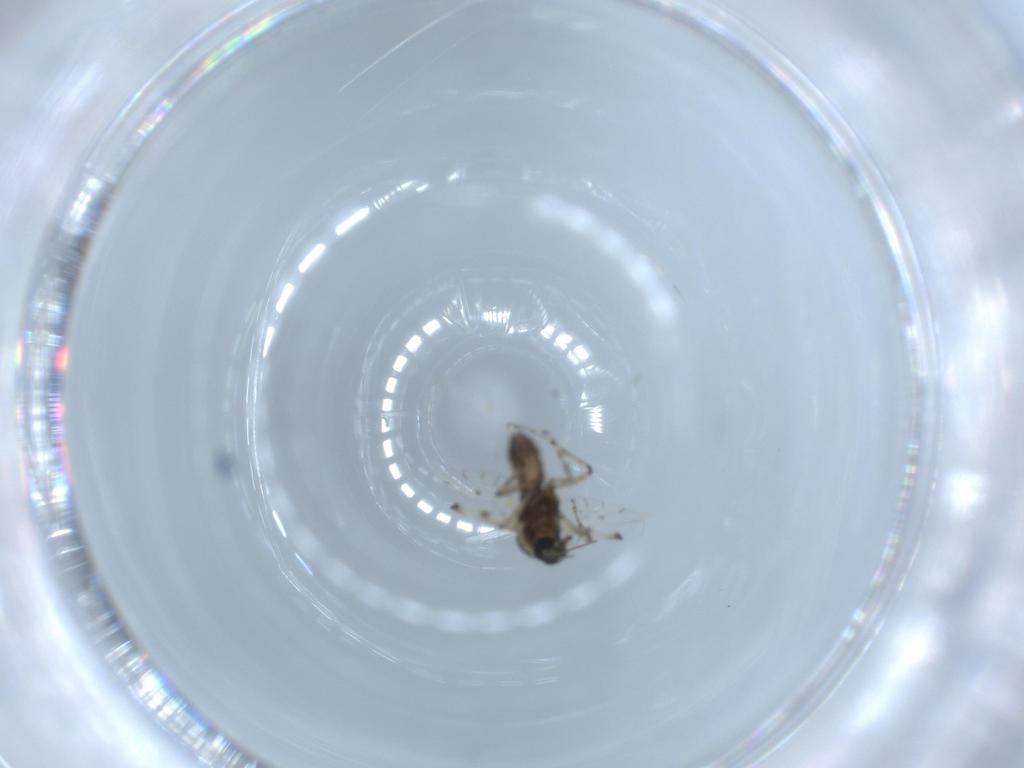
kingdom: Animalia
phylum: Arthropoda
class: Insecta
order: Diptera
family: Ceratopogonidae
